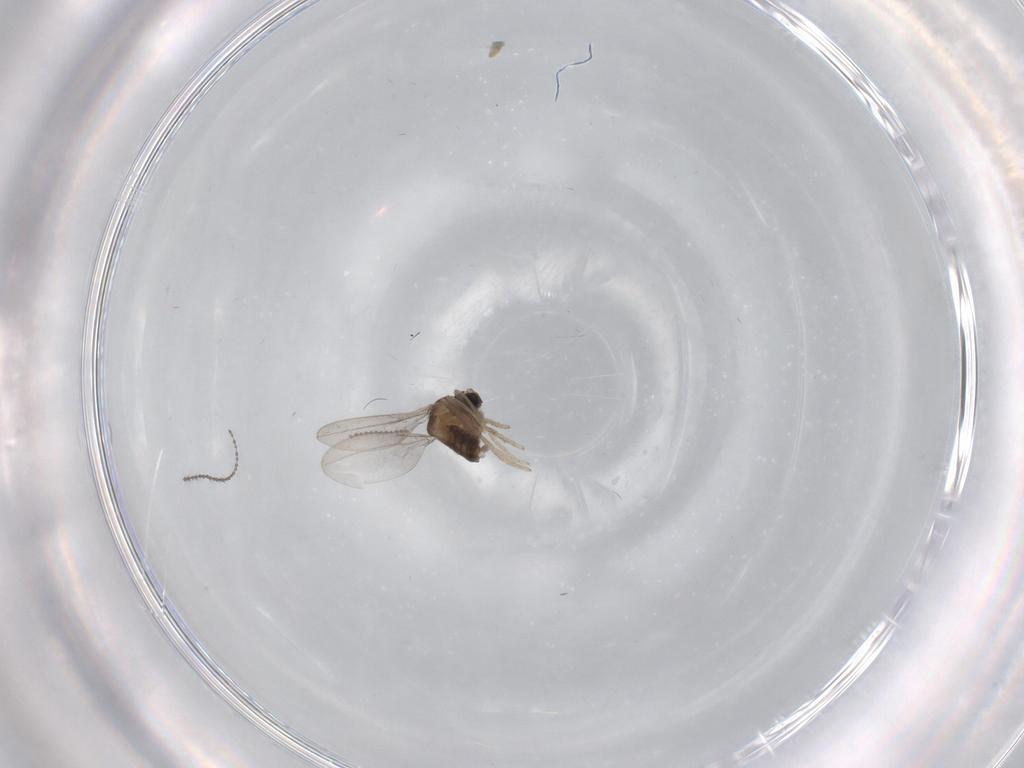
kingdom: Animalia
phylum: Arthropoda
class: Insecta
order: Diptera
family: Cecidomyiidae
